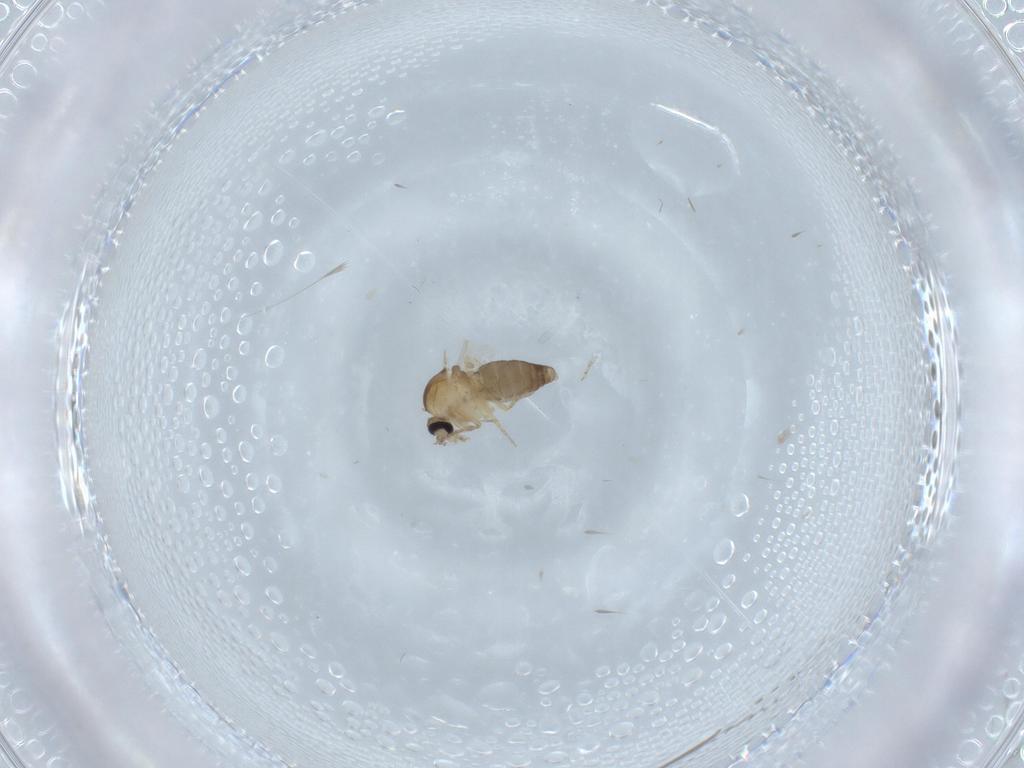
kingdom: Animalia
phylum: Arthropoda
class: Insecta
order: Diptera
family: Ceratopogonidae
